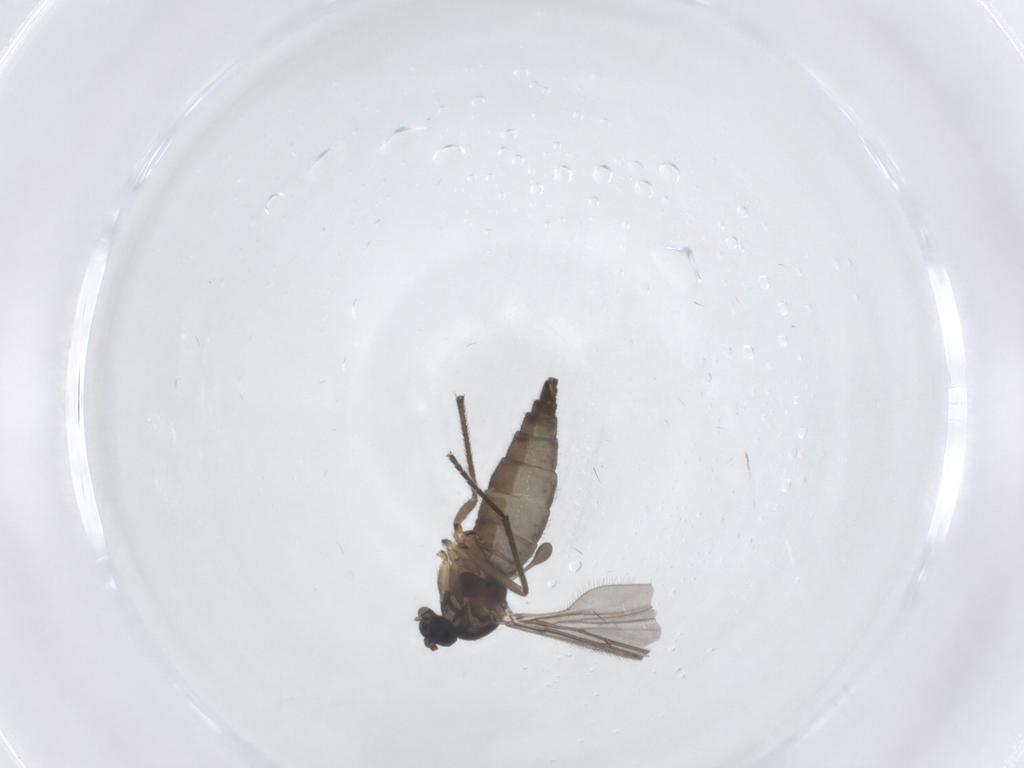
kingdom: Animalia
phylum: Arthropoda
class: Insecta
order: Diptera
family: Sciaridae
